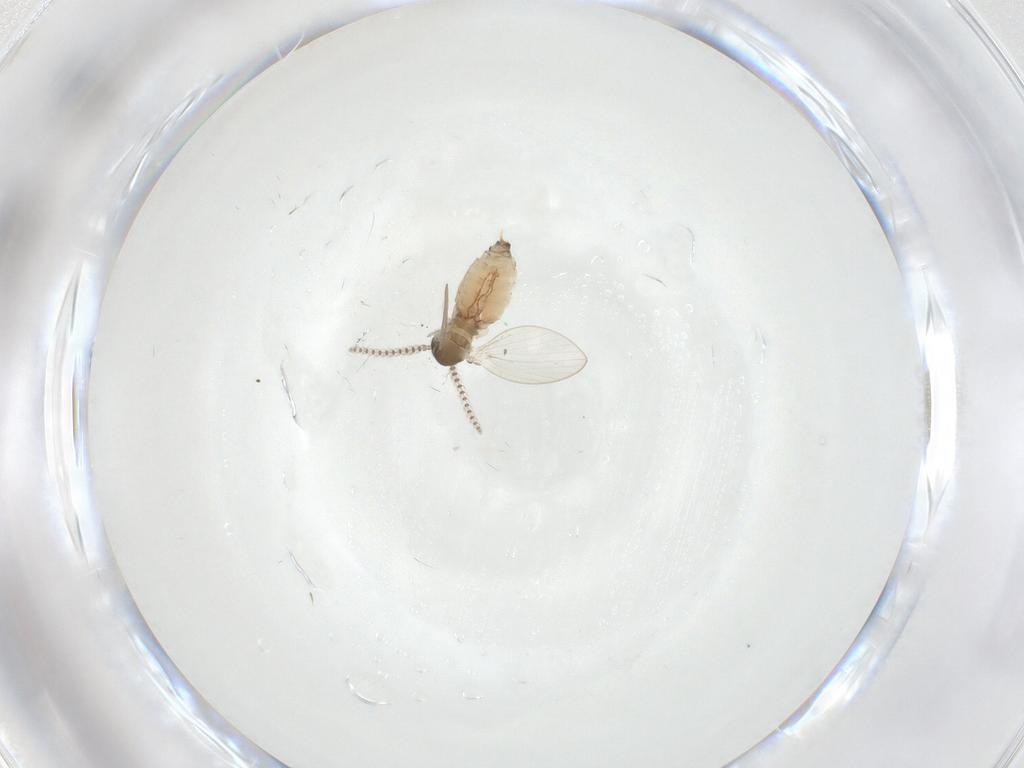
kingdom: Animalia
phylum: Arthropoda
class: Insecta
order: Diptera
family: Psychodidae
